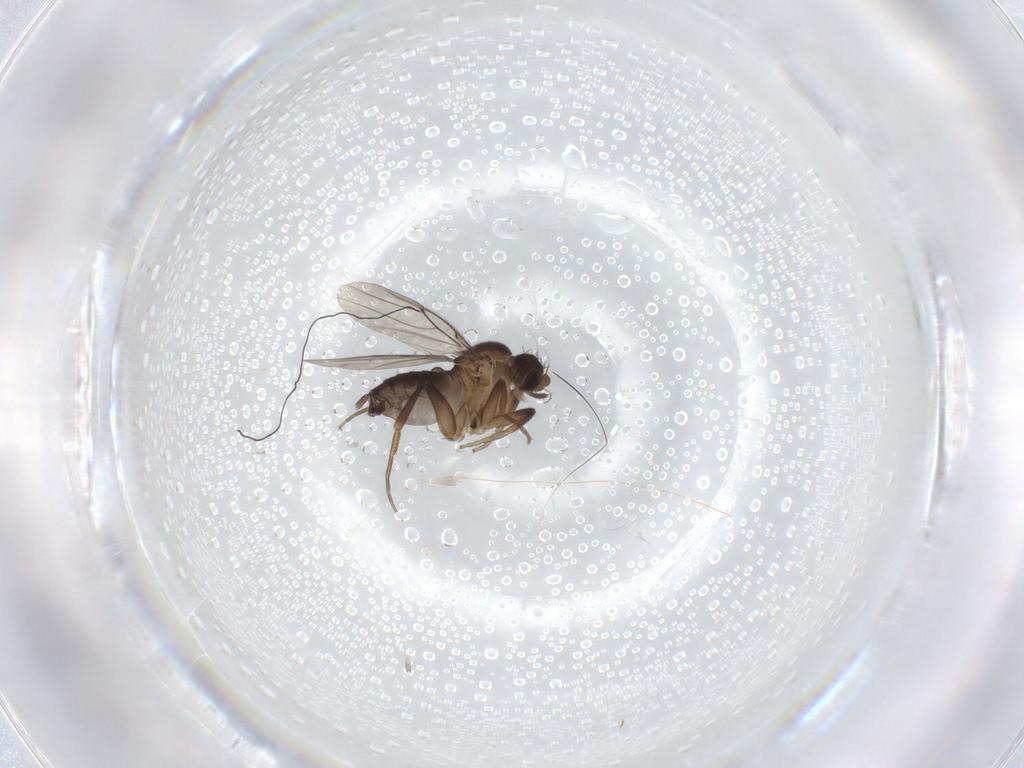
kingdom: Animalia
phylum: Arthropoda
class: Insecta
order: Diptera
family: Phoridae
